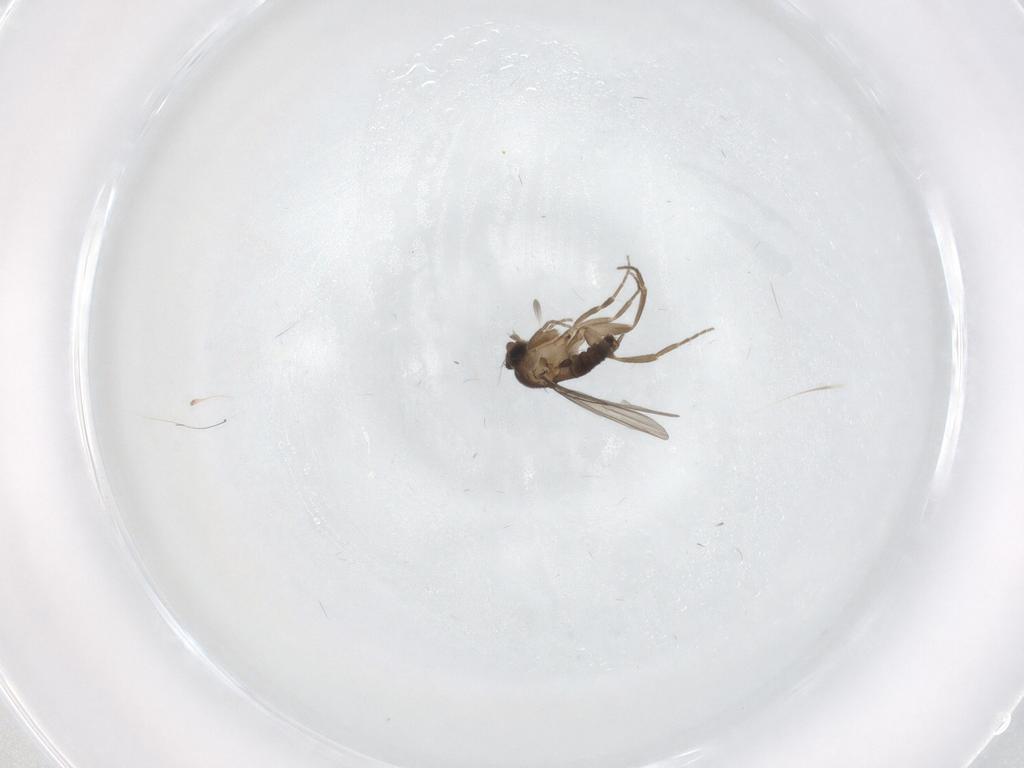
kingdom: Animalia
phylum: Arthropoda
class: Insecta
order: Diptera
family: Phoridae
